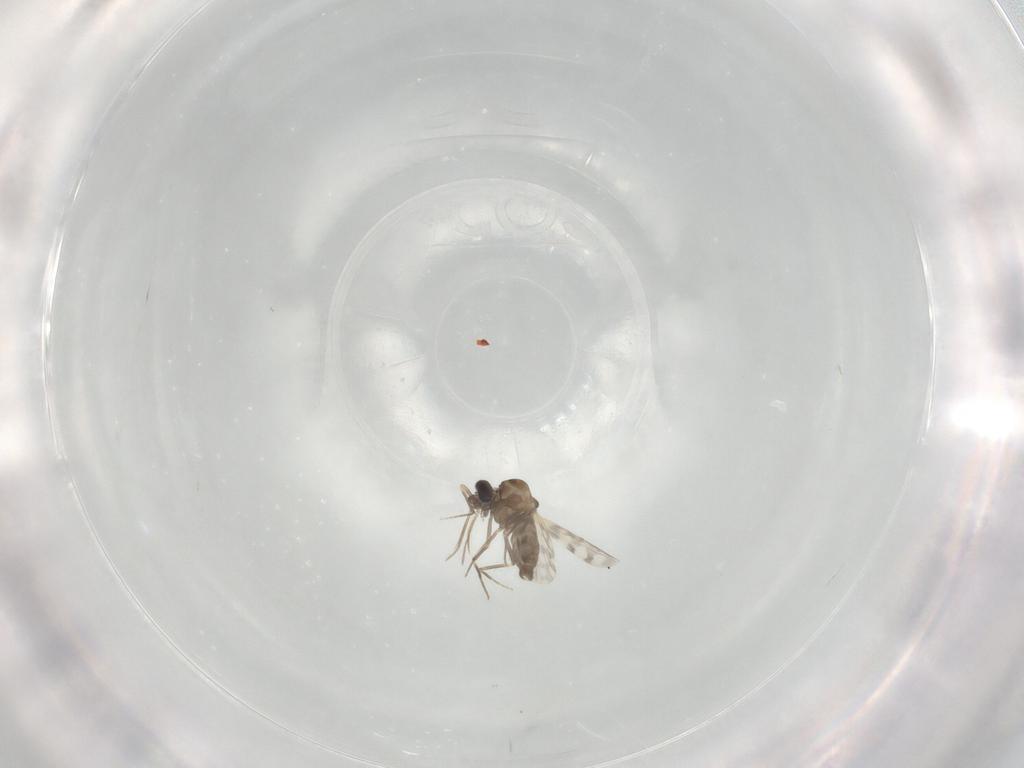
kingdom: Animalia
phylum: Arthropoda
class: Insecta
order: Diptera
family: Ceratopogonidae
